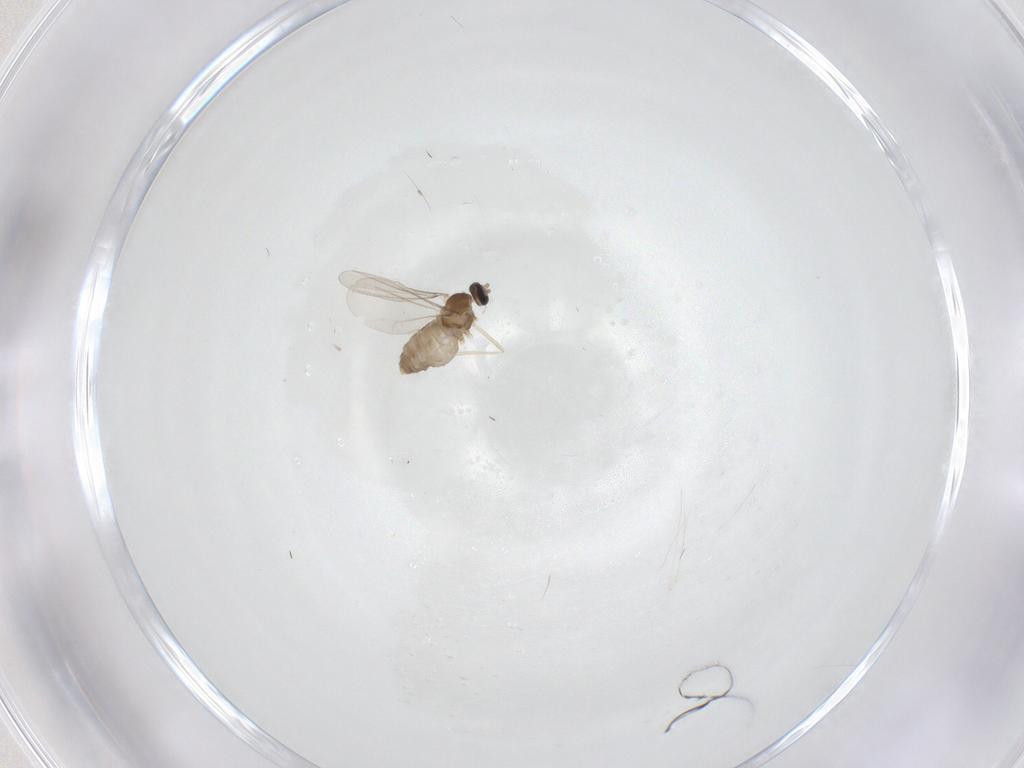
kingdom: Animalia
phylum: Arthropoda
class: Insecta
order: Diptera
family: Cecidomyiidae
